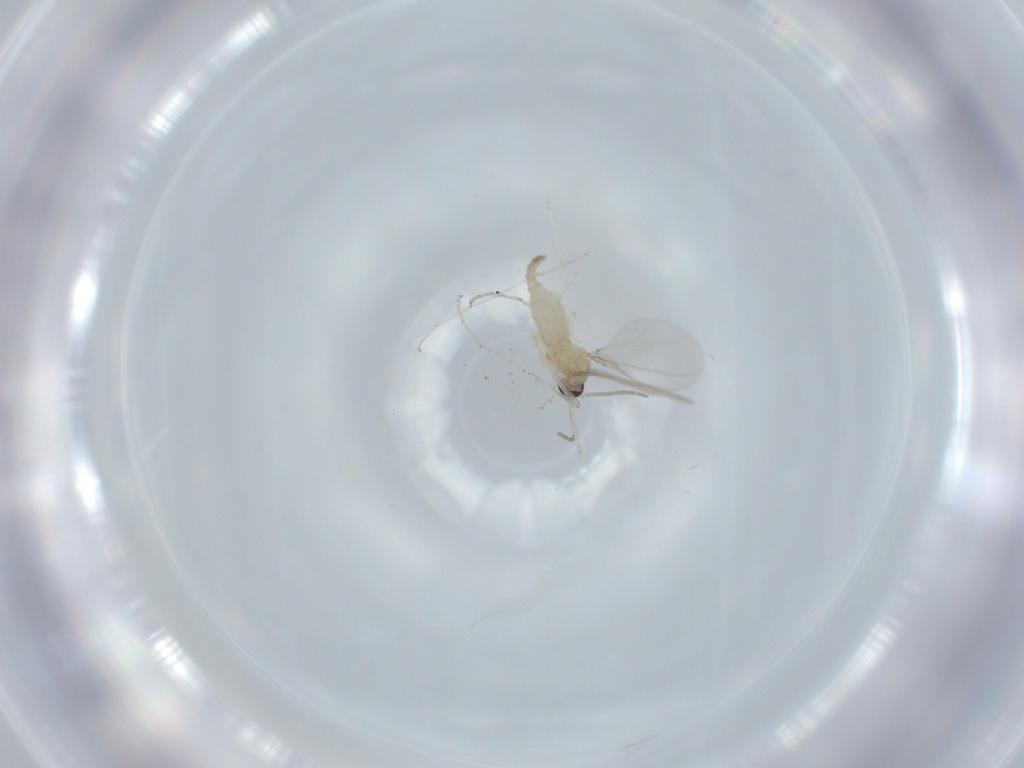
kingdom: Animalia
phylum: Arthropoda
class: Insecta
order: Diptera
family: Cecidomyiidae
